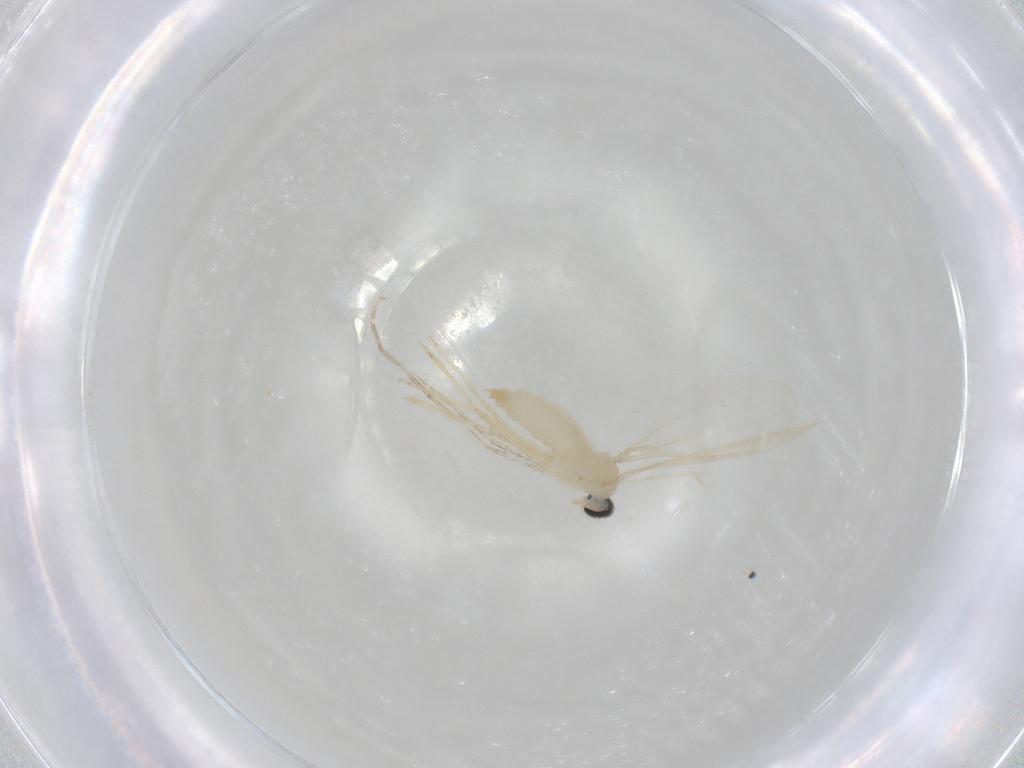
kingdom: Animalia
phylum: Arthropoda
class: Insecta
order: Diptera
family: Cecidomyiidae
